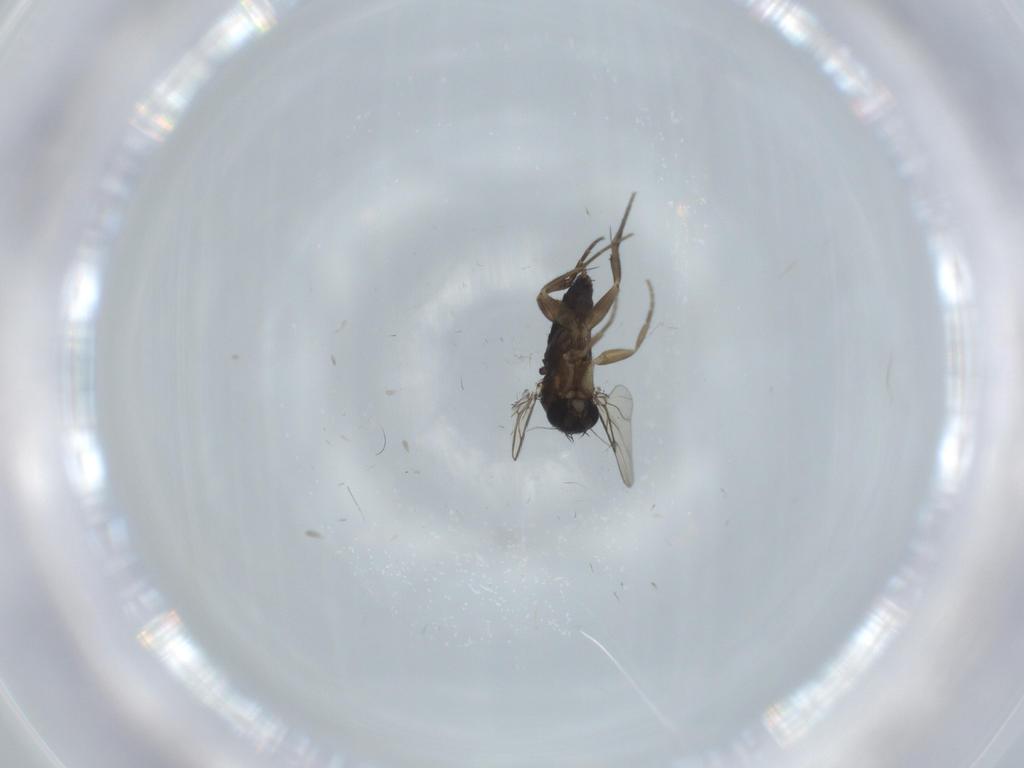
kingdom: Animalia
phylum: Arthropoda
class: Insecta
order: Diptera
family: Phoridae
